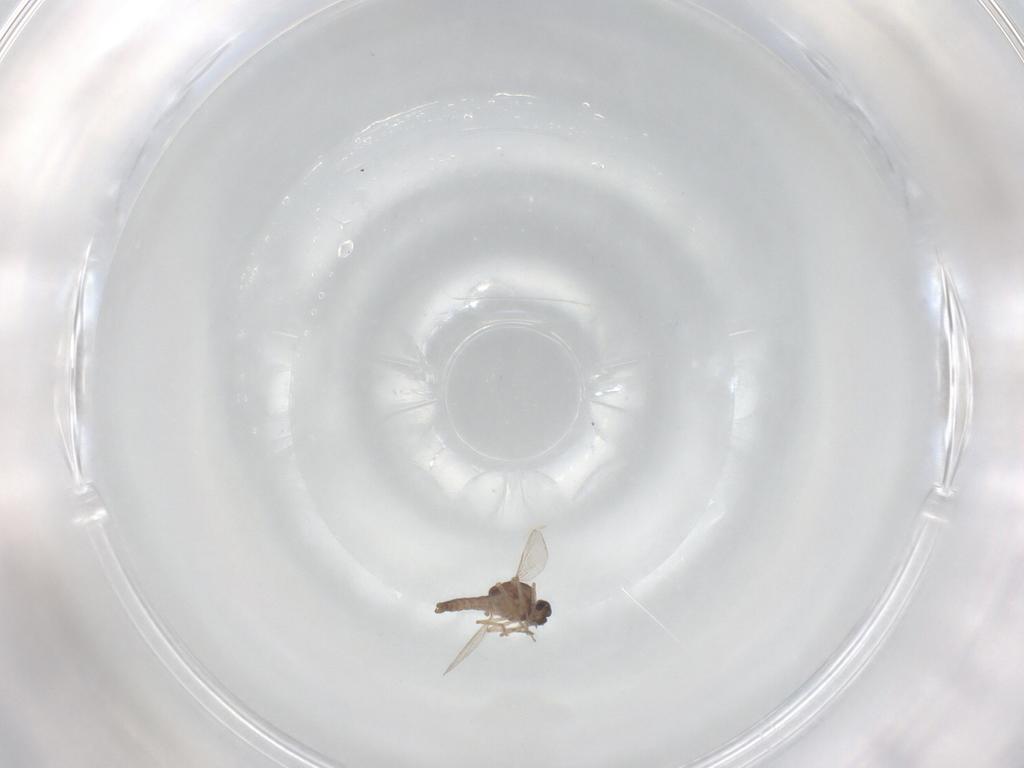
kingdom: Animalia
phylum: Arthropoda
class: Insecta
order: Diptera
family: Ceratopogonidae
